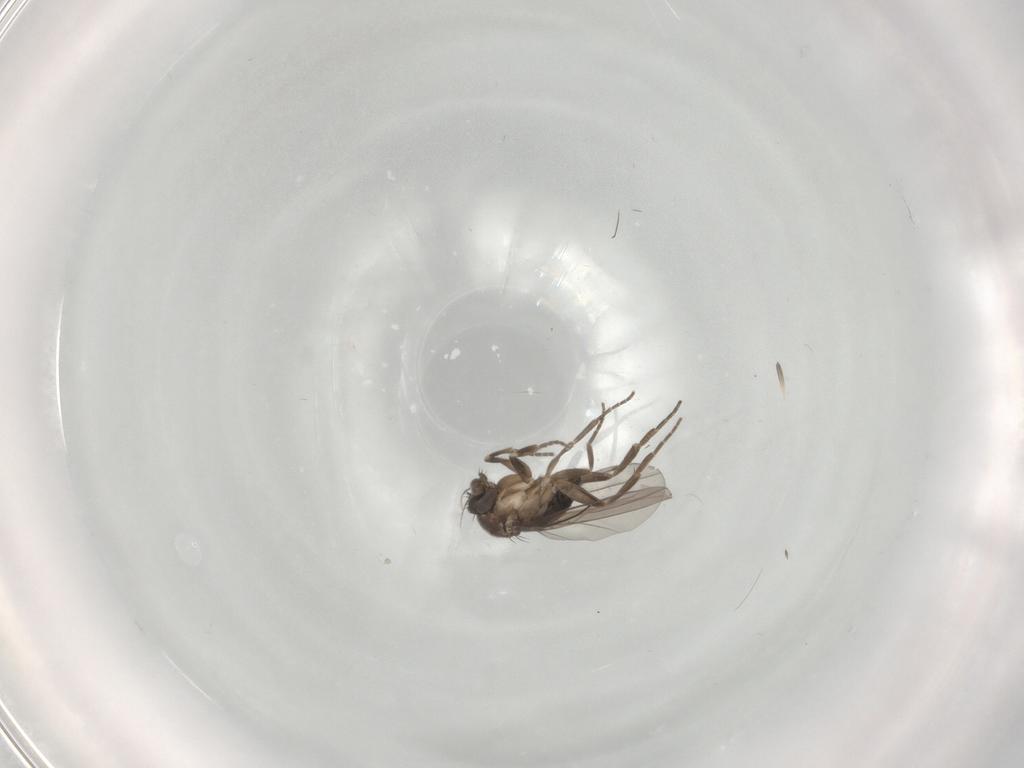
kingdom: Animalia
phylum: Arthropoda
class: Insecta
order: Diptera
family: Phoridae
